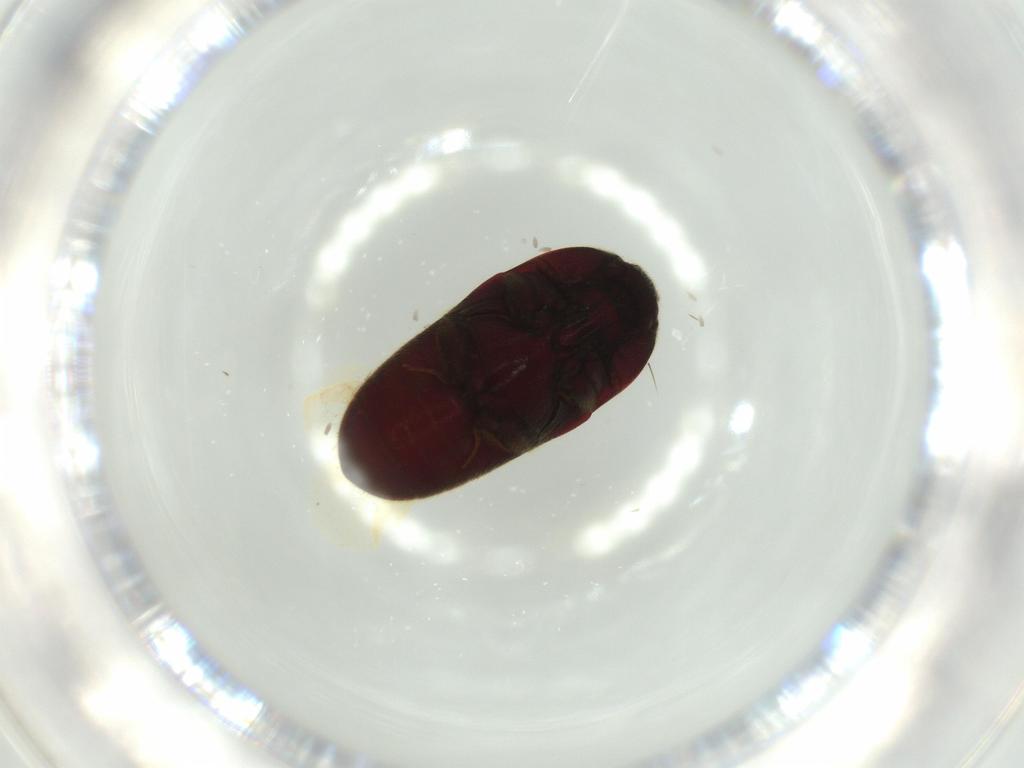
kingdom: Animalia
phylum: Arthropoda
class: Insecta
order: Coleoptera
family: Throscidae
